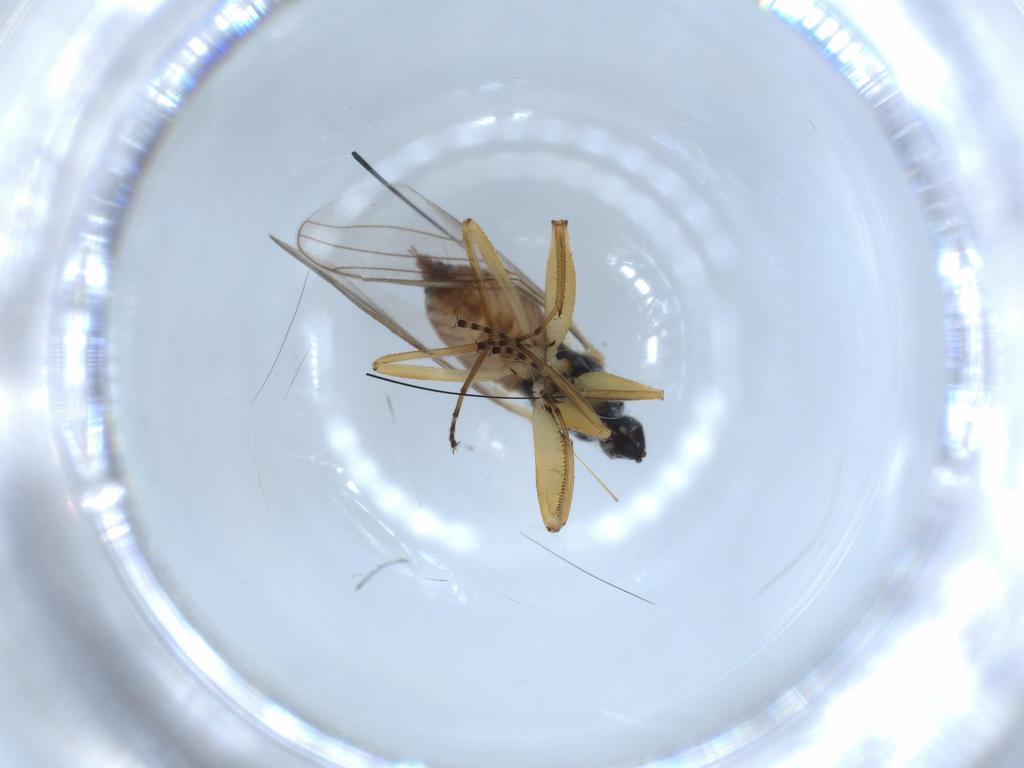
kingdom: Animalia
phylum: Arthropoda
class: Insecta
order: Diptera
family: Hybotidae
